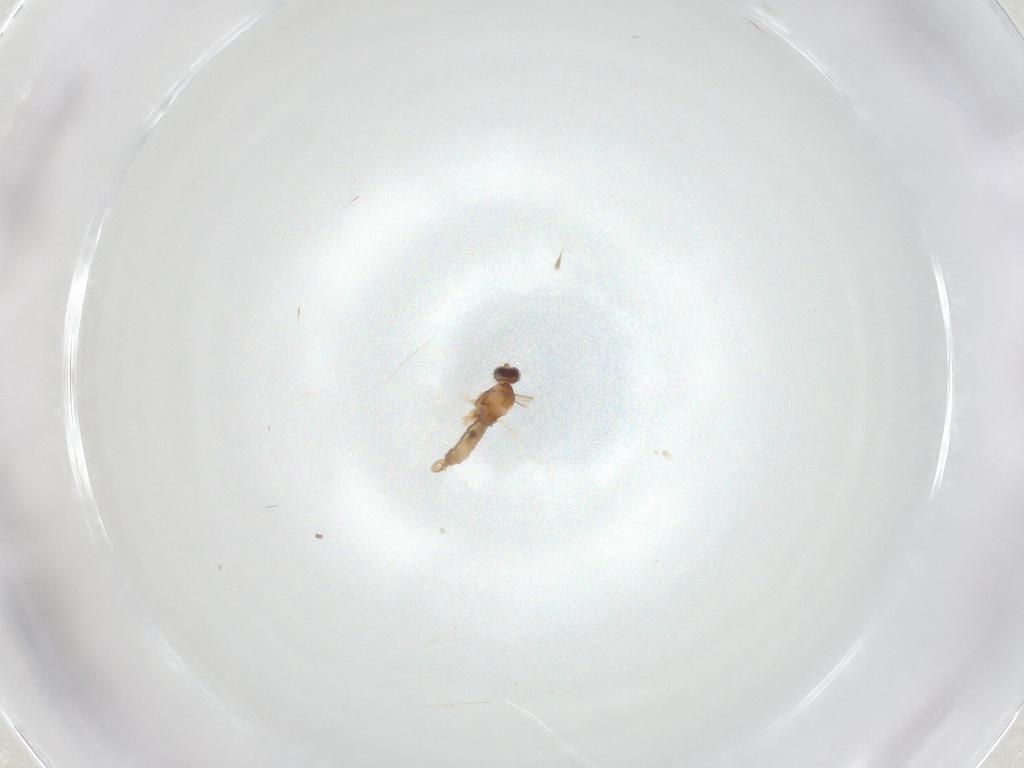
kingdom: Animalia
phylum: Arthropoda
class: Insecta
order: Diptera
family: Cecidomyiidae
